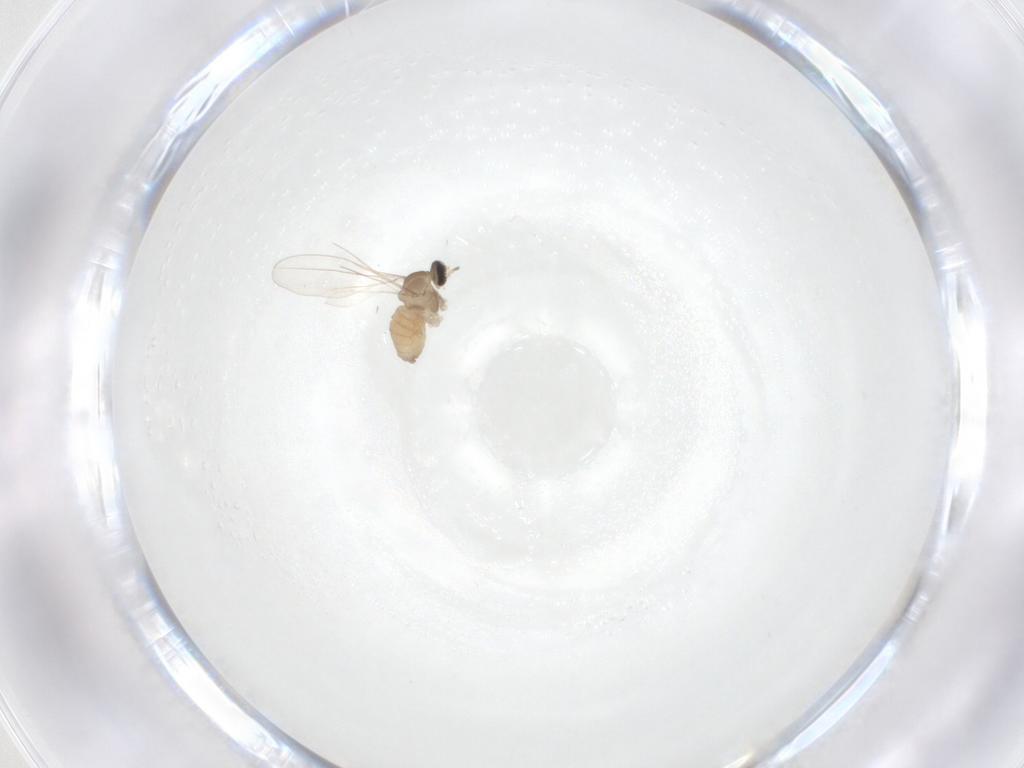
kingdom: Animalia
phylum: Arthropoda
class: Insecta
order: Diptera
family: Cecidomyiidae
